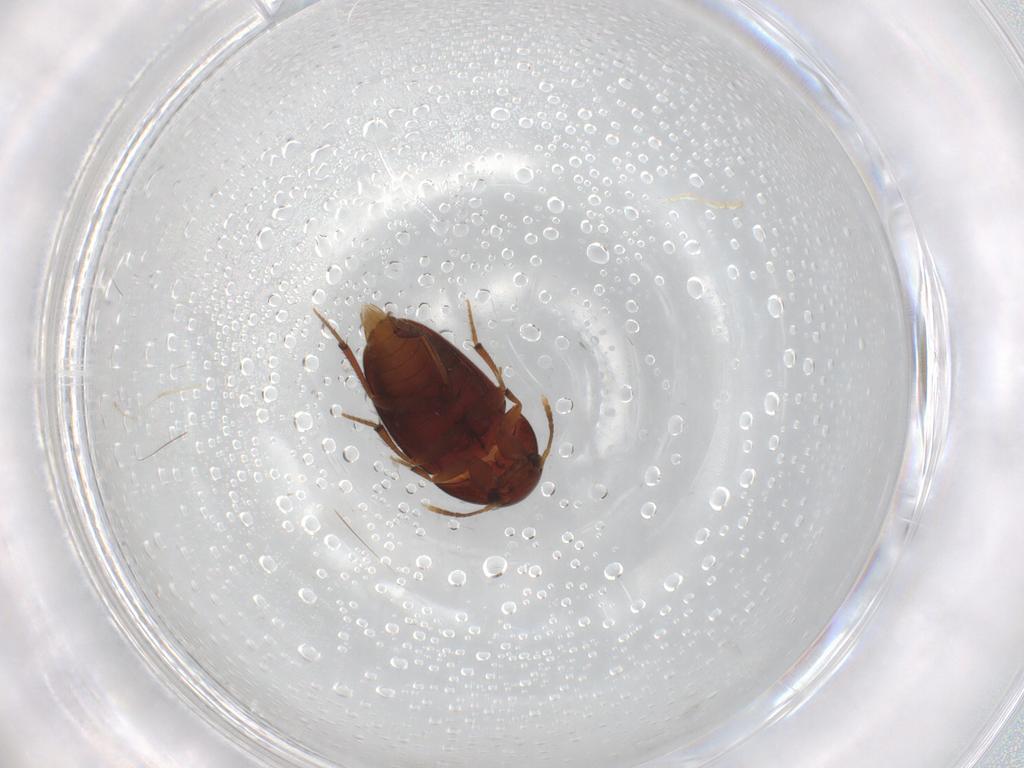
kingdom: Animalia
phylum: Arthropoda
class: Insecta
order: Coleoptera
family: Leiodidae
